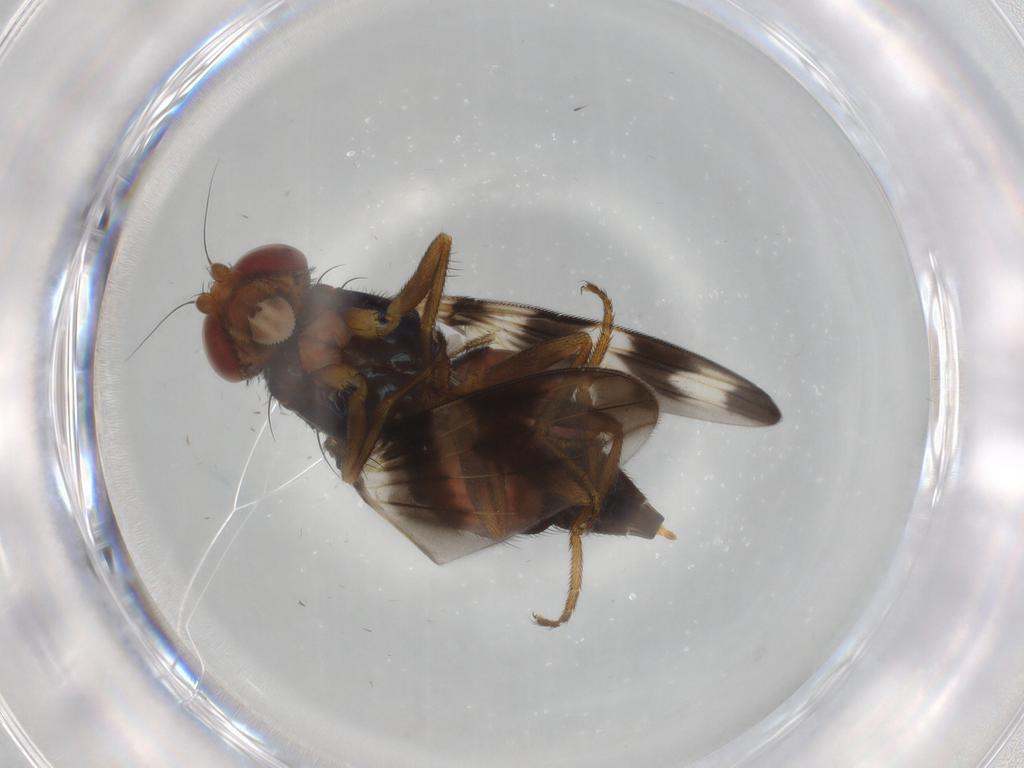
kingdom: Animalia
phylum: Arthropoda
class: Insecta
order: Diptera
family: Ulidiidae
